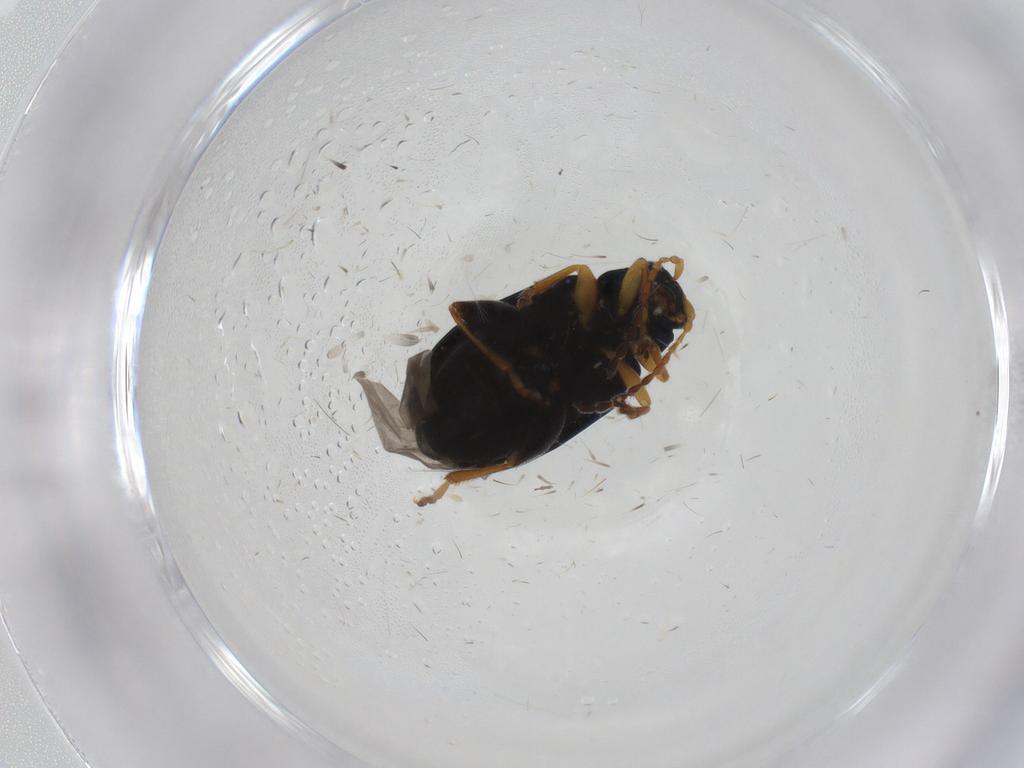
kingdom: Animalia
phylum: Arthropoda
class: Insecta
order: Coleoptera
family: Chrysomelidae
